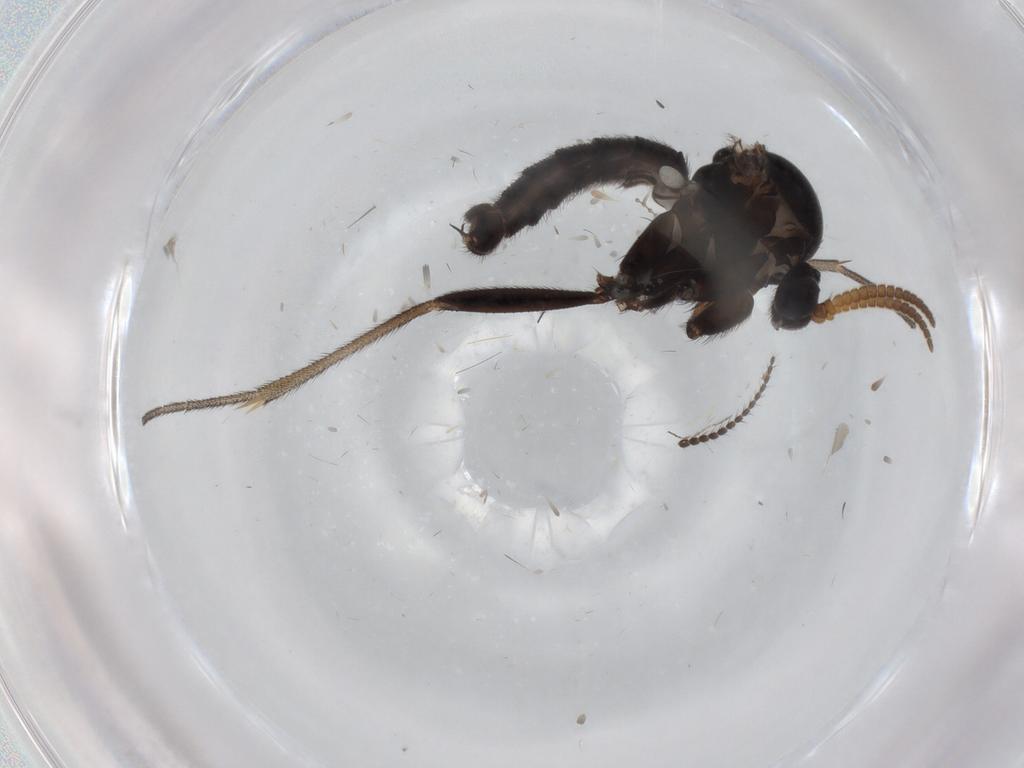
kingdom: Animalia
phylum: Arthropoda
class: Insecta
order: Diptera
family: Mycetophilidae
